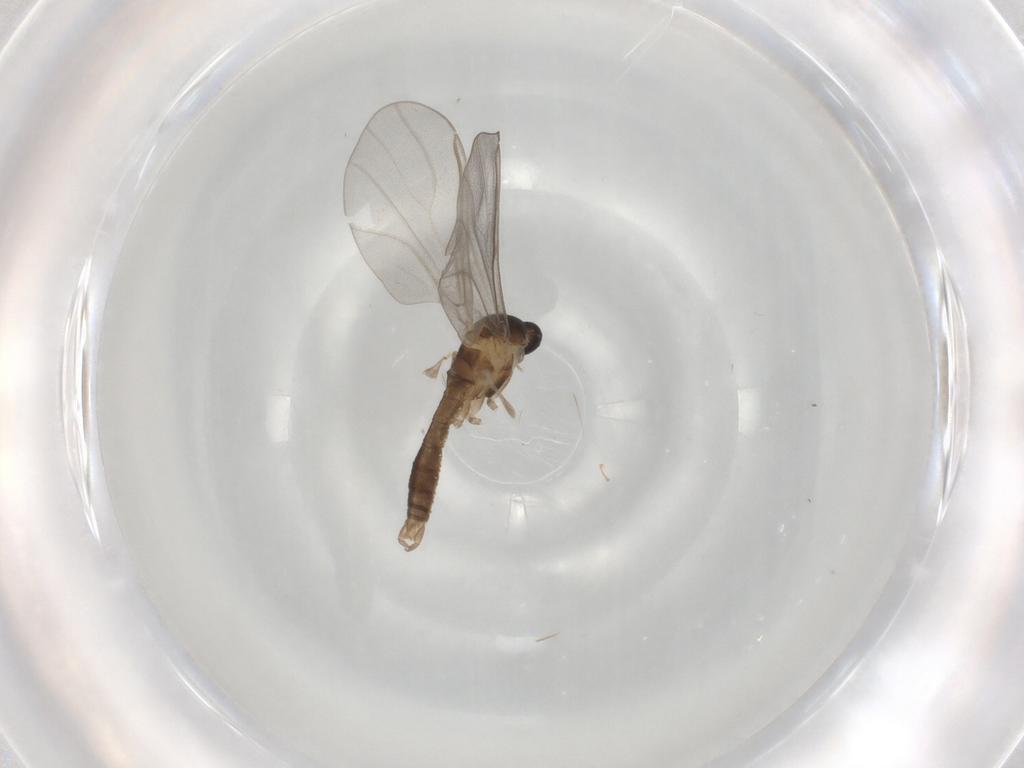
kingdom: Animalia
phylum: Arthropoda
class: Insecta
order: Diptera
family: Cecidomyiidae
